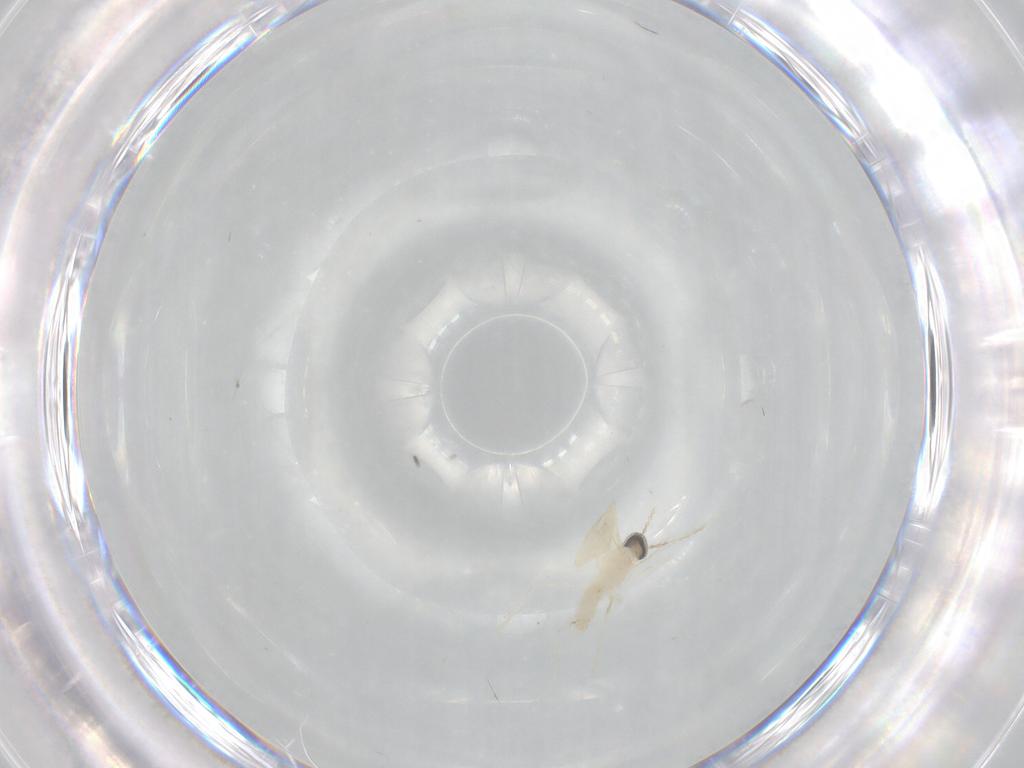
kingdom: Animalia
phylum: Arthropoda
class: Insecta
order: Diptera
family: Cecidomyiidae
